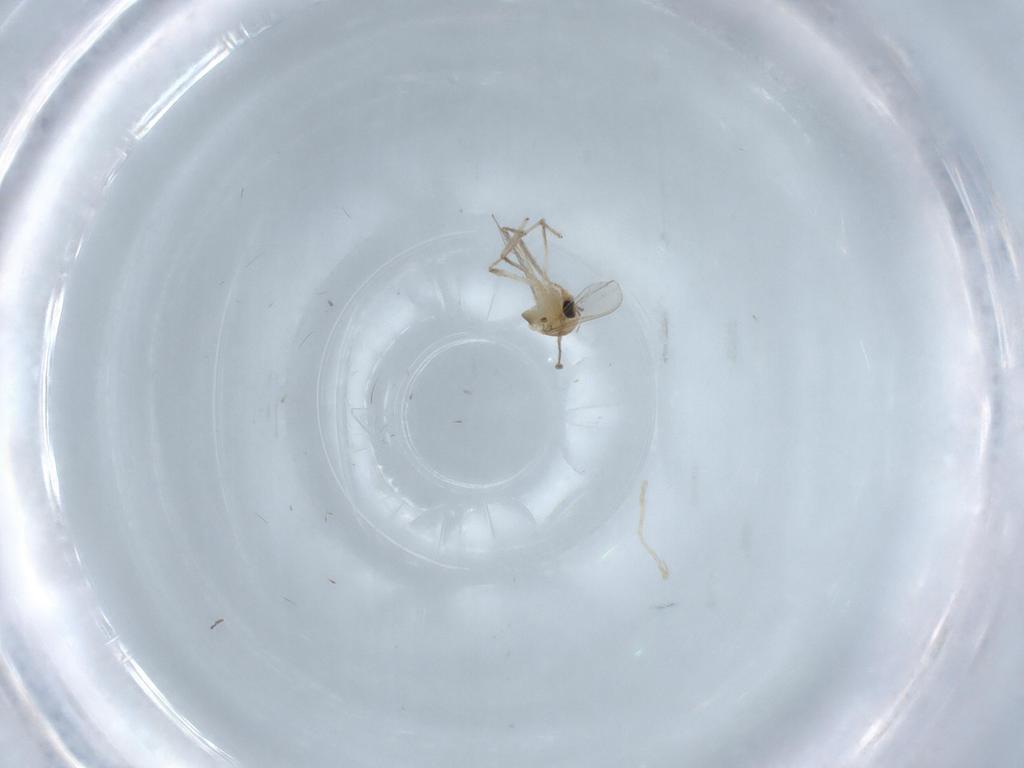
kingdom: Animalia
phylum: Arthropoda
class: Insecta
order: Diptera
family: Chironomidae
